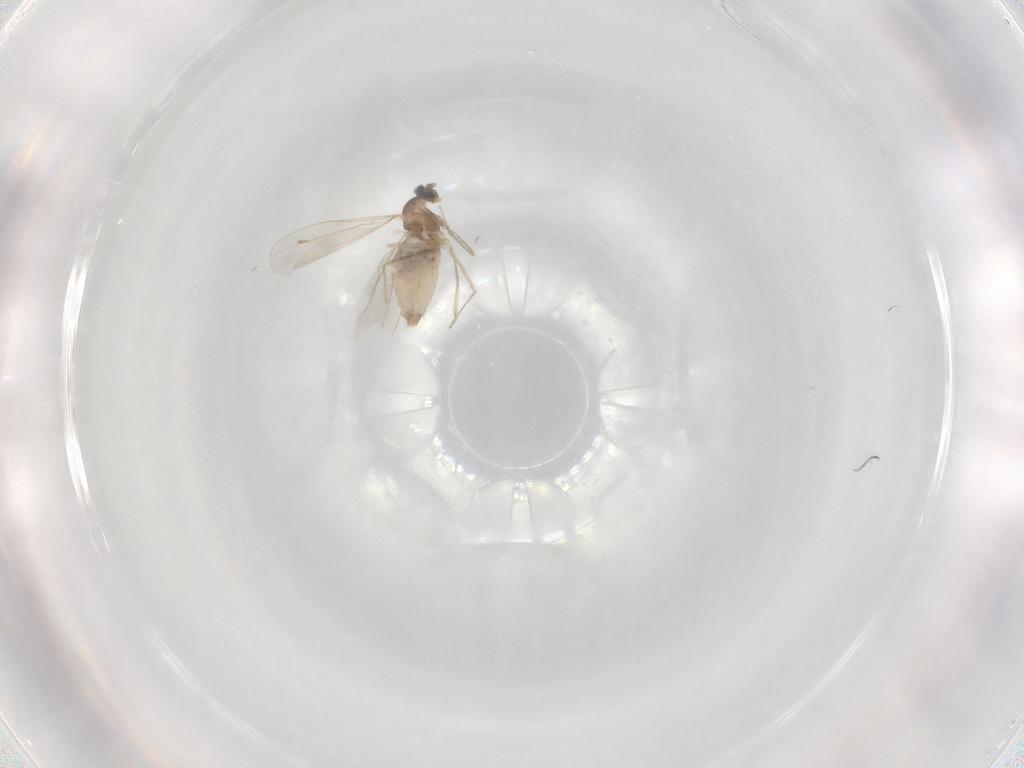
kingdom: Animalia
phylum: Arthropoda
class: Insecta
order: Diptera
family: Cecidomyiidae
